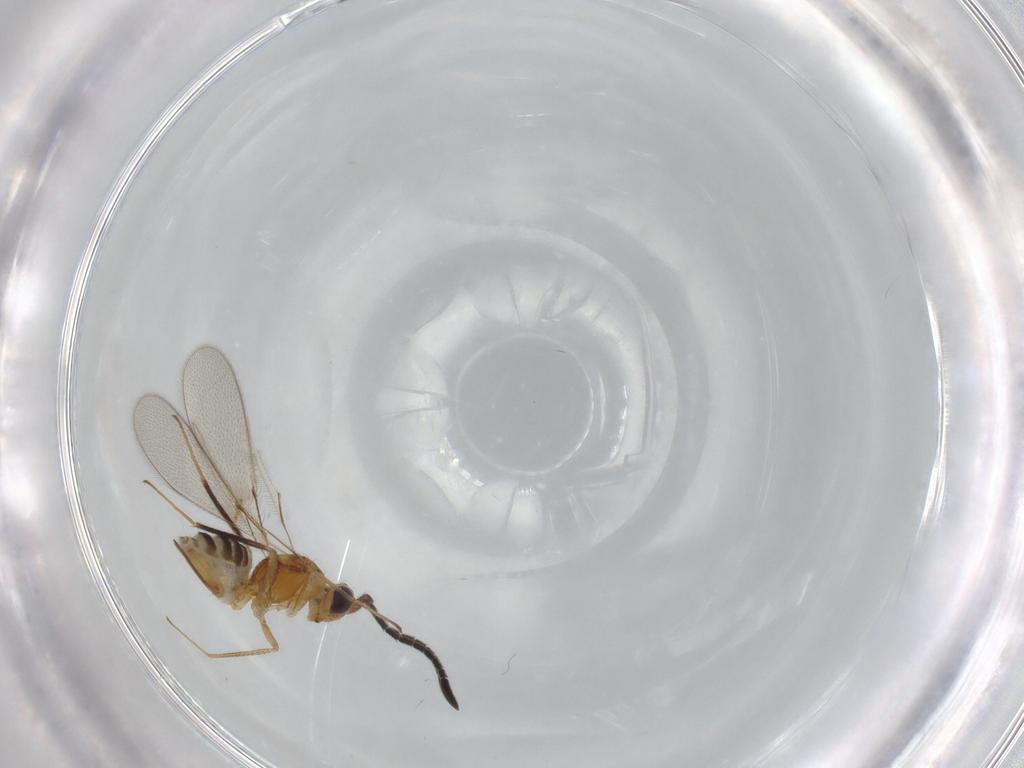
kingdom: Animalia
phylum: Arthropoda
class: Insecta
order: Hymenoptera
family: Mymaridae
